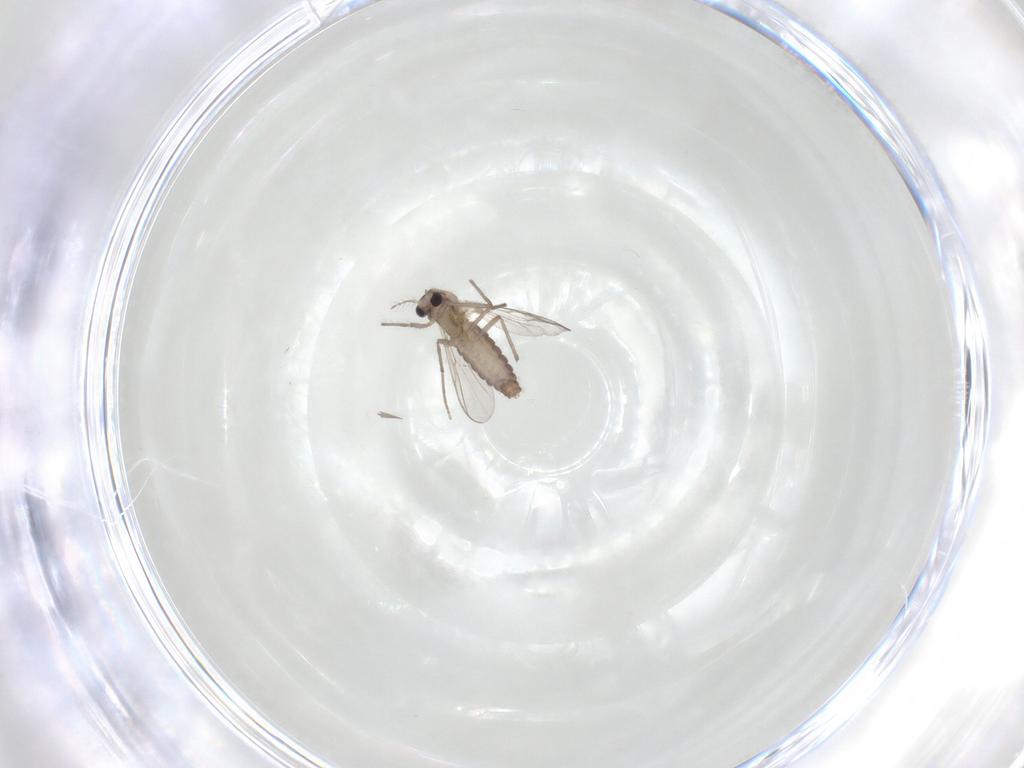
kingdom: Animalia
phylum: Arthropoda
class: Insecta
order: Diptera
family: Chironomidae
